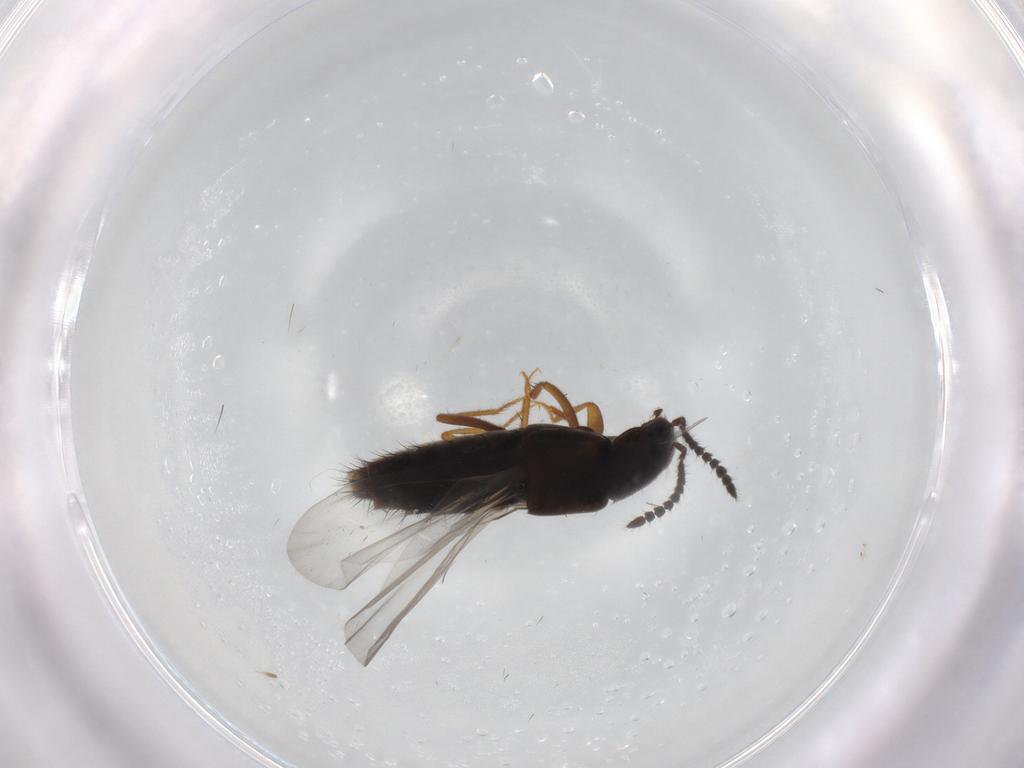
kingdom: Animalia
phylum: Arthropoda
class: Insecta
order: Coleoptera
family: Staphylinidae
